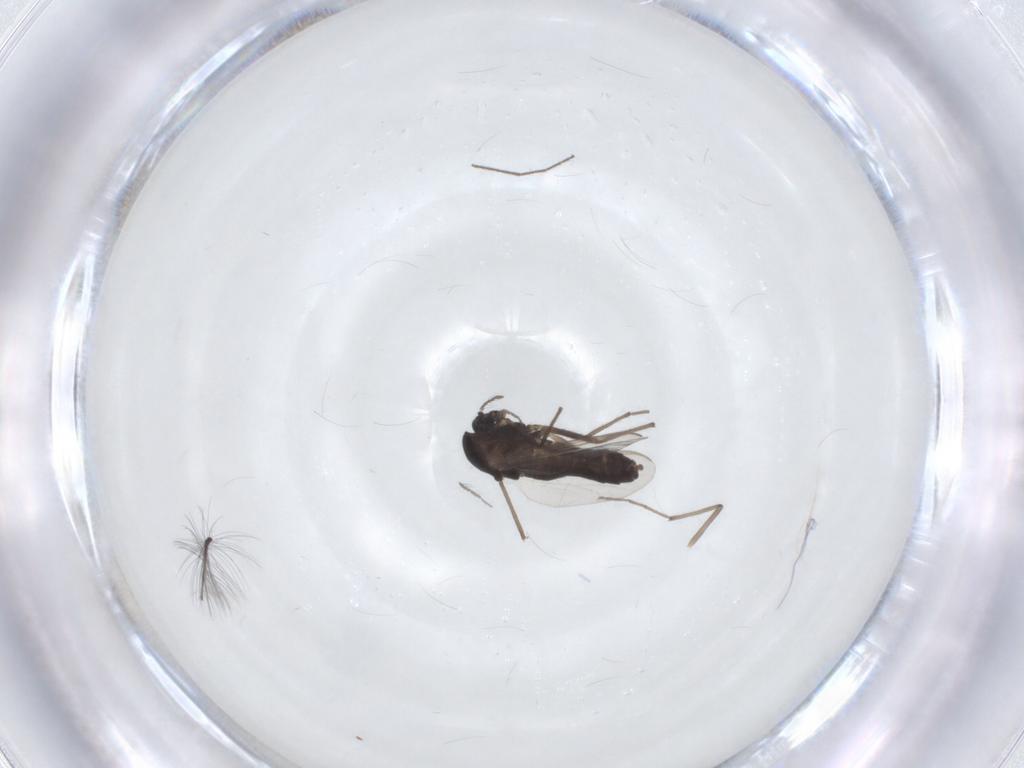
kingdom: Animalia
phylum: Arthropoda
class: Insecta
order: Diptera
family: Chironomidae
